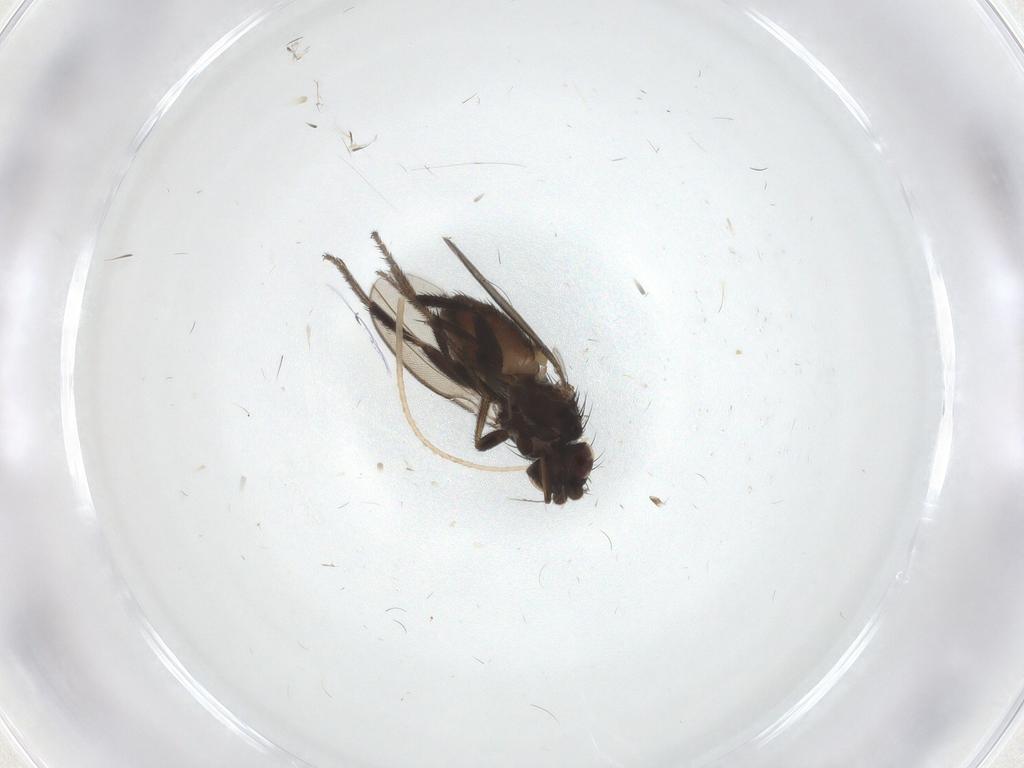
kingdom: Animalia
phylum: Arthropoda
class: Insecta
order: Diptera
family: Milichiidae
